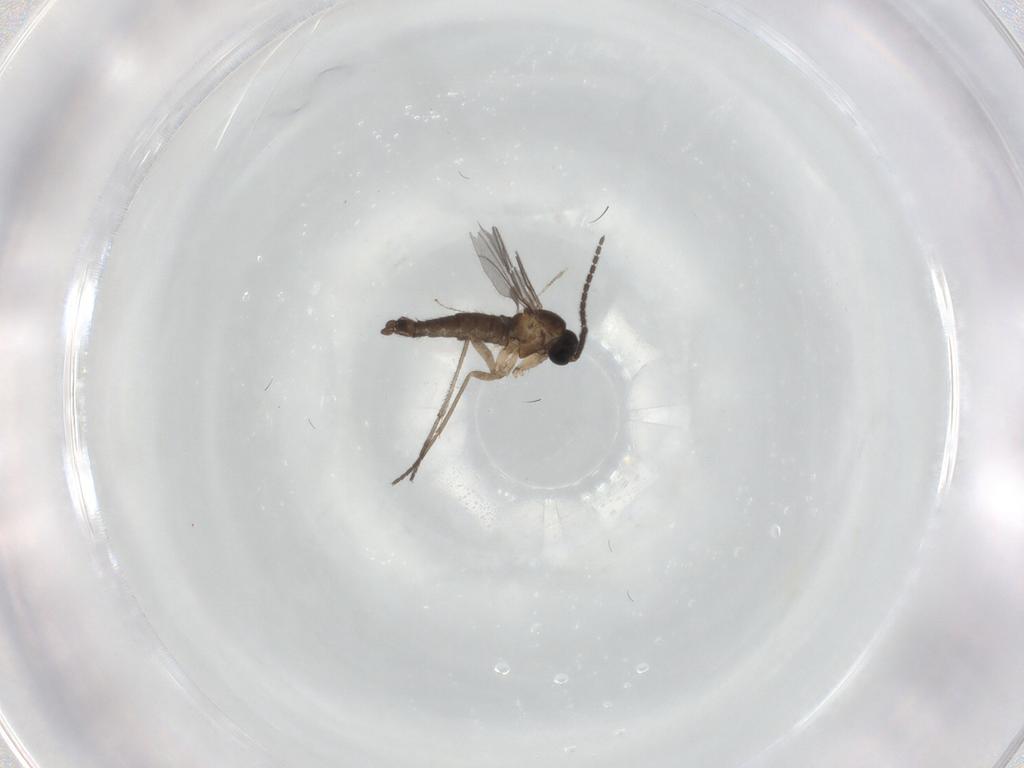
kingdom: Animalia
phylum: Arthropoda
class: Insecta
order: Diptera
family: Sciaridae
